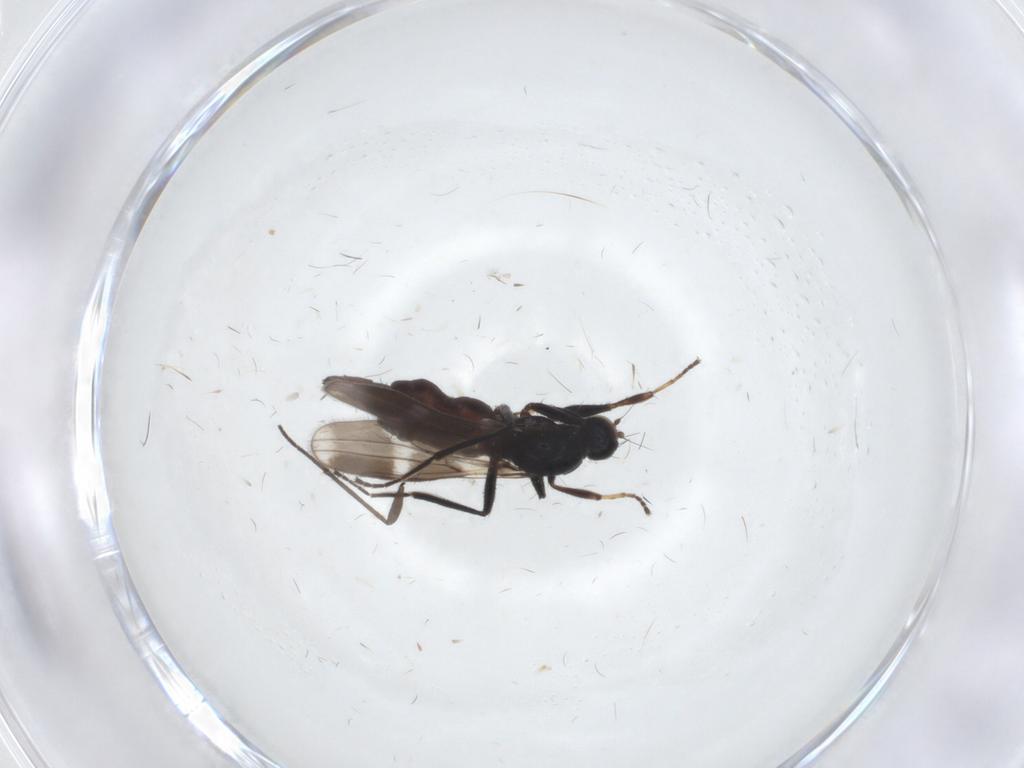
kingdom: Animalia
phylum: Arthropoda
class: Insecta
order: Diptera
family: Hybotidae
